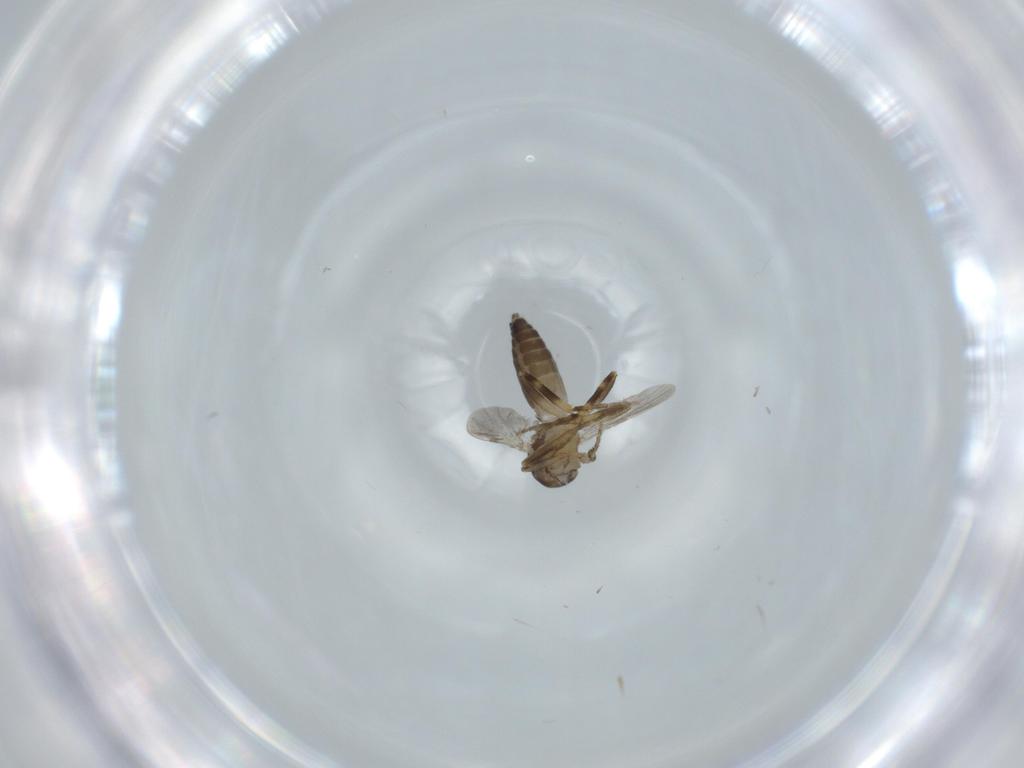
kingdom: Animalia
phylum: Arthropoda
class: Insecta
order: Diptera
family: Ceratopogonidae
